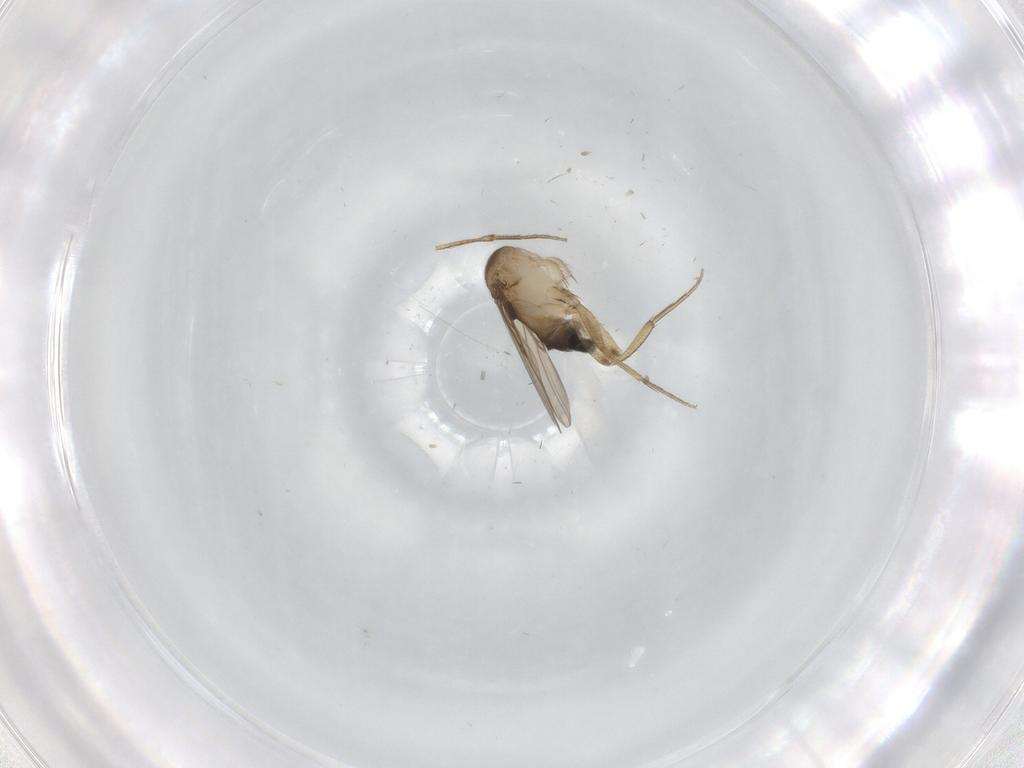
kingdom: Animalia
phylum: Arthropoda
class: Insecta
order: Diptera
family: Phoridae
